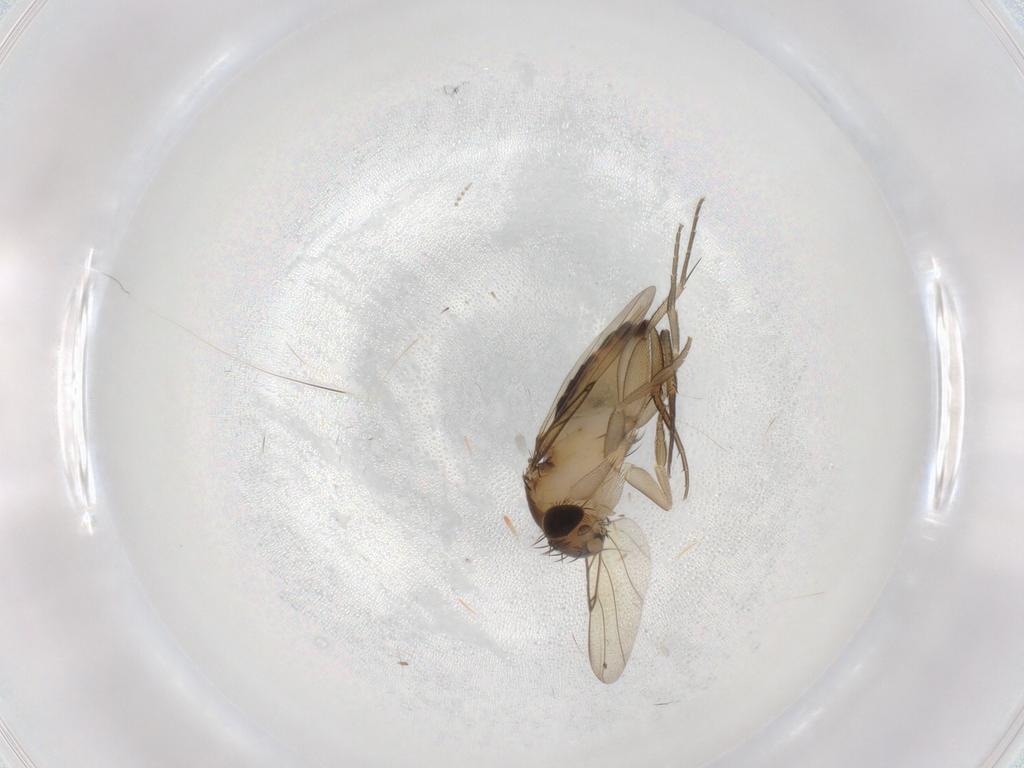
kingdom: Animalia
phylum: Arthropoda
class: Insecta
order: Diptera
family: Psychodidae
